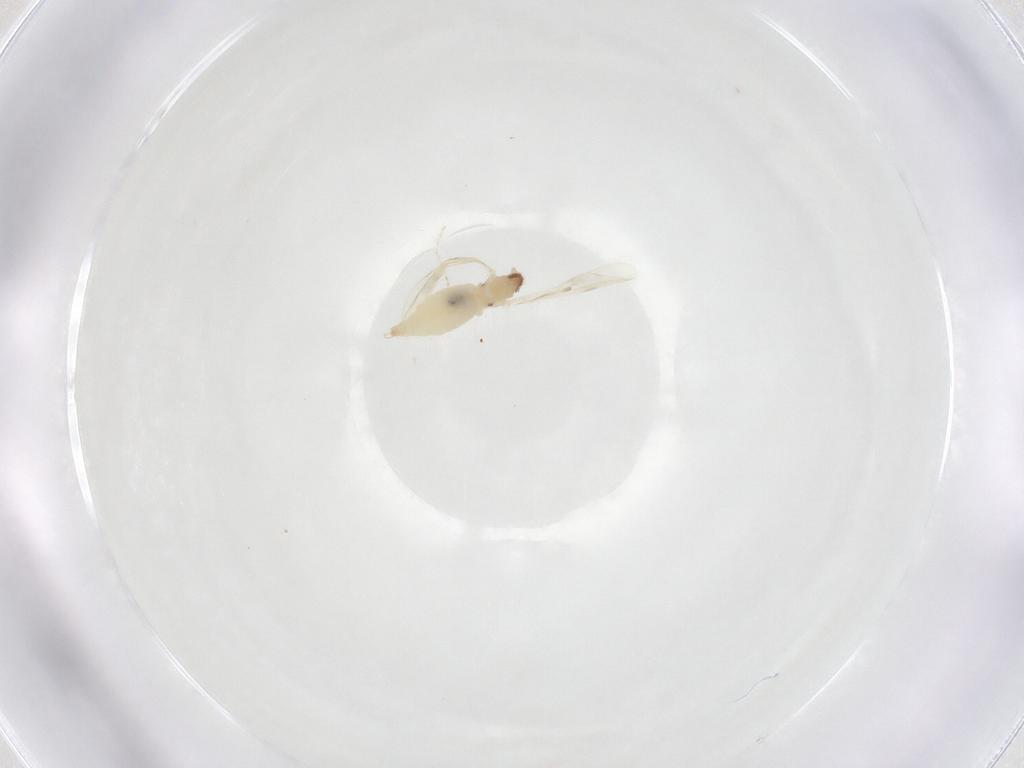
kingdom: Animalia
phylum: Arthropoda
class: Insecta
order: Diptera
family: Cecidomyiidae
